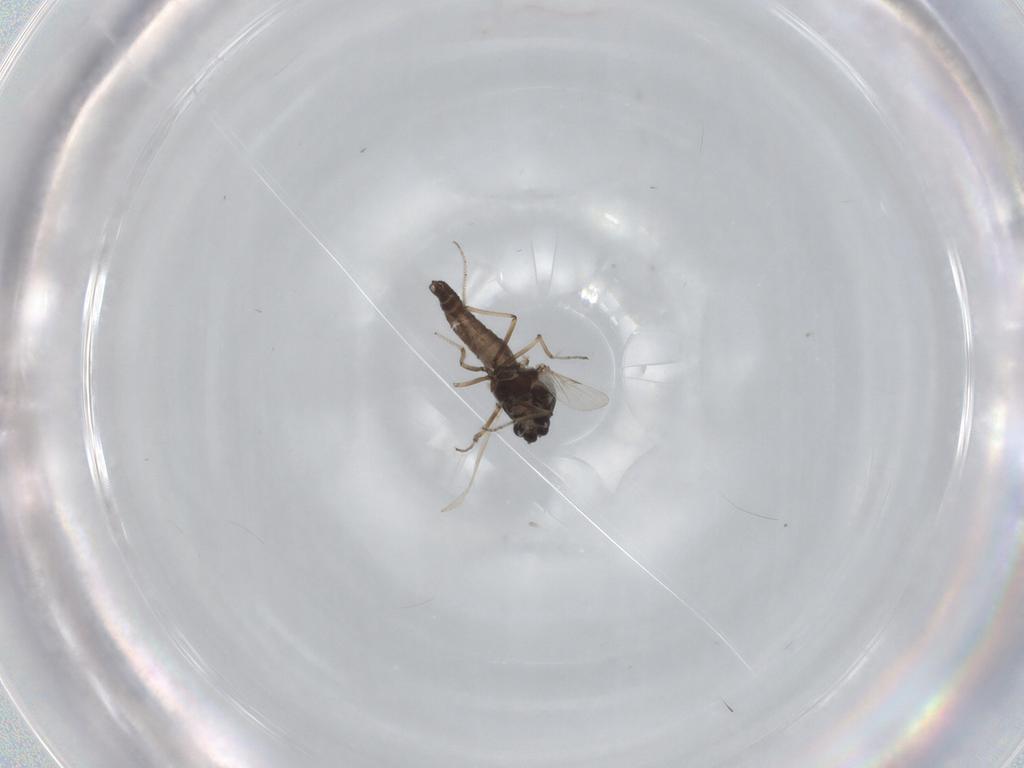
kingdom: Animalia
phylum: Arthropoda
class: Insecta
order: Diptera
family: Ceratopogonidae
